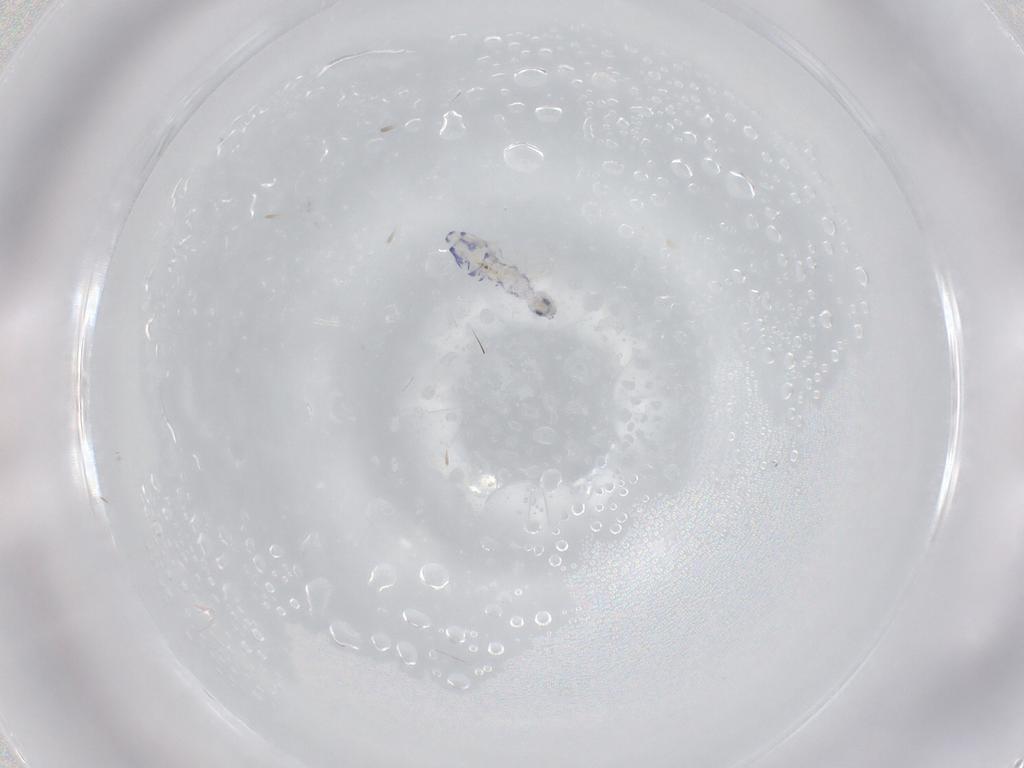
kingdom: Animalia
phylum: Arthropoda
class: Collembola
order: Entomobryomorpha
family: Entomobryidae
